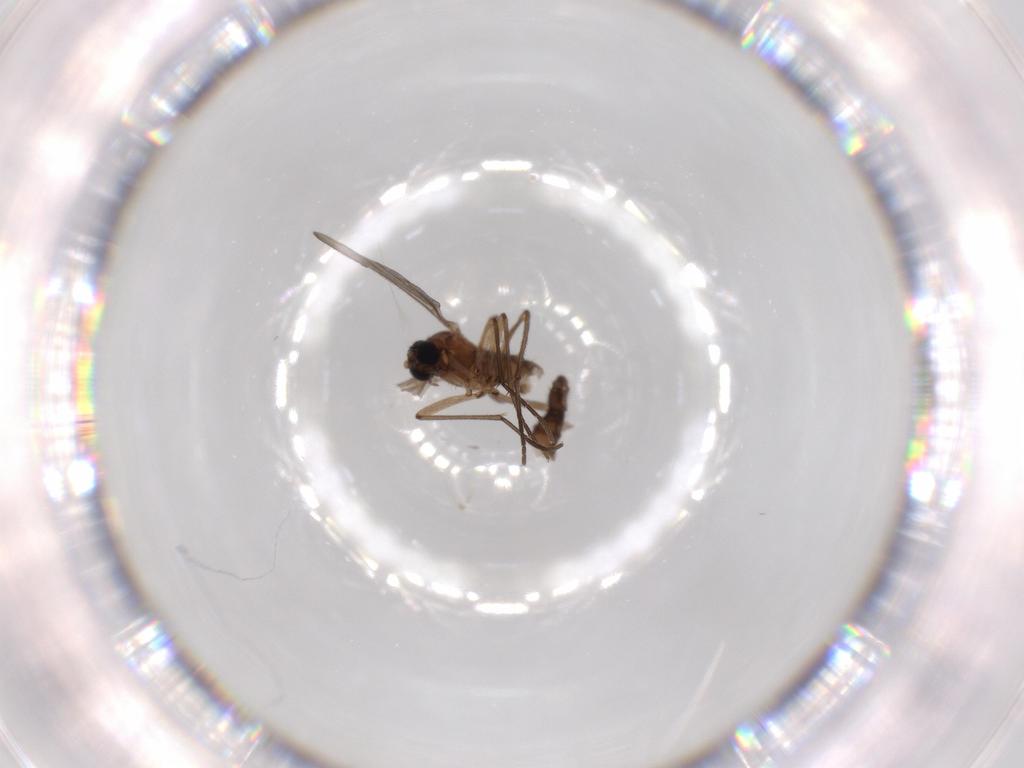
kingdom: Animalia
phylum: Arthropoda
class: Insecta
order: Diptera
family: Sciaridae
